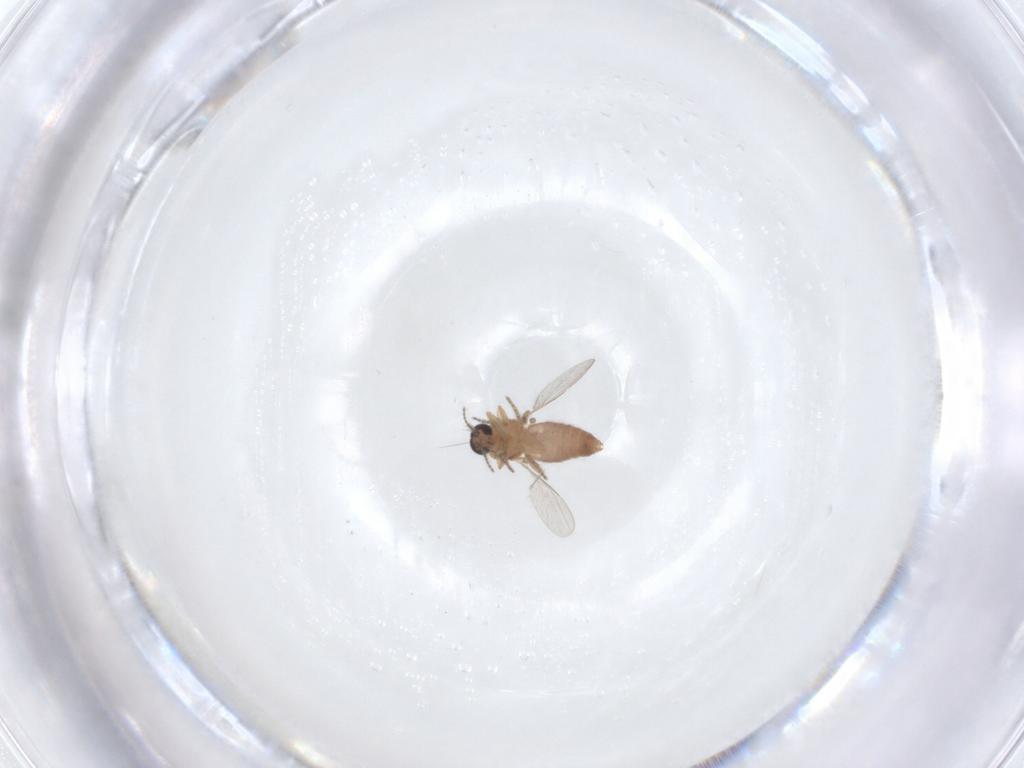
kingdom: Animalia
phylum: Arthropoda
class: Insecta
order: Diptera
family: Ceratopogonidae
